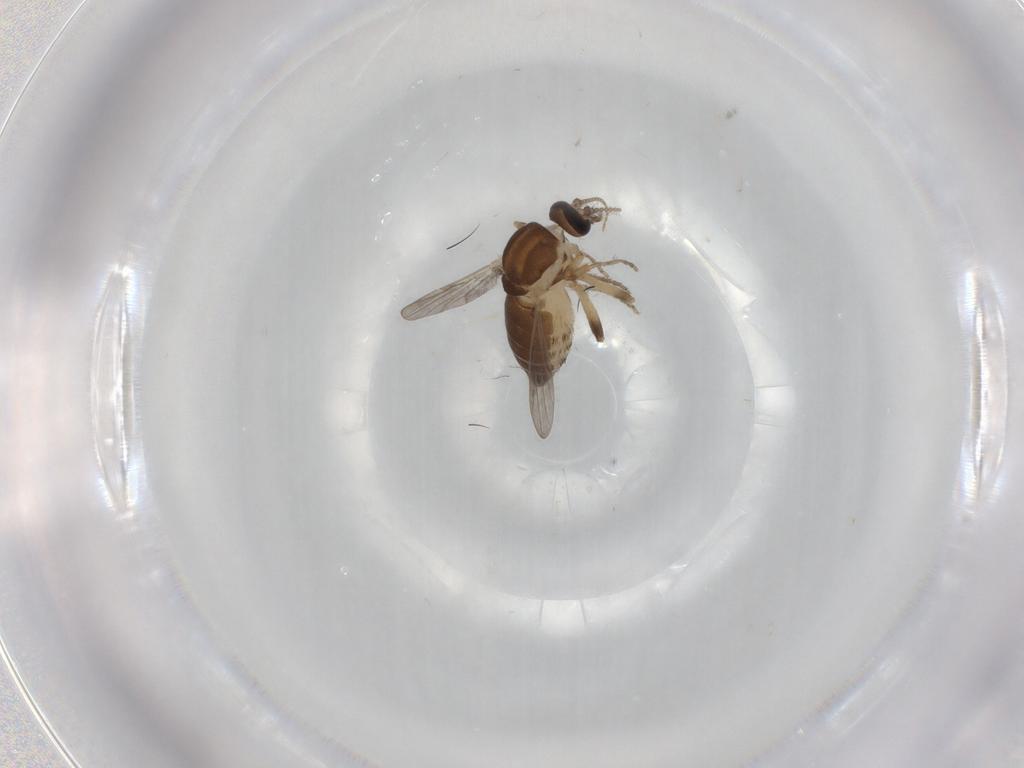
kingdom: Animalia
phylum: Arthropoda
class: Insecta
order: Diptera
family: Ceratopogonidae
